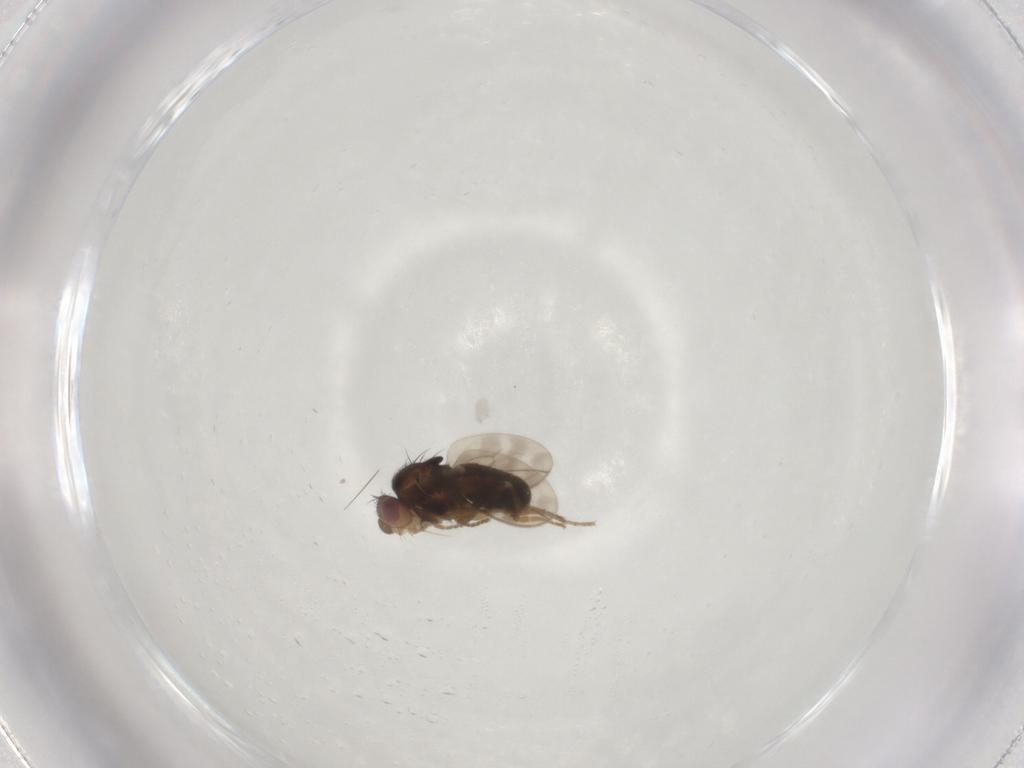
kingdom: Animalia
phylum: Arthropoda
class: Insecta
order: Diptera
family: Sphaeroceridae
